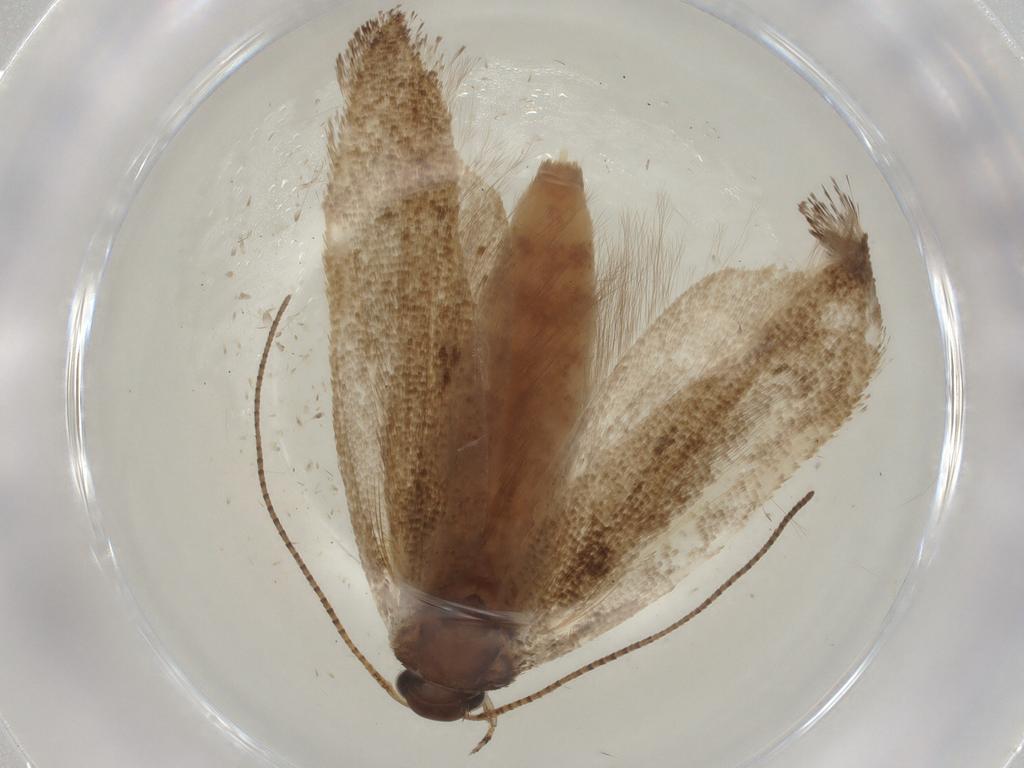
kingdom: Animalia
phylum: Arthropoda
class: Insecta
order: Lepidoptera
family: Gelechiidae
